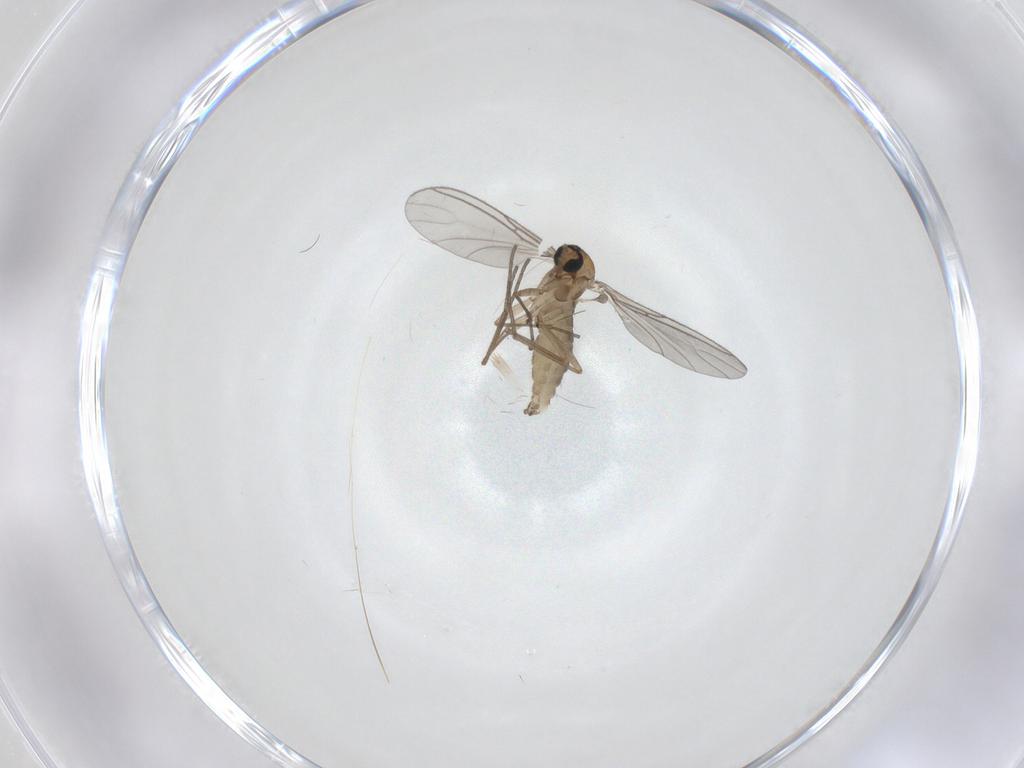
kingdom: Animalia
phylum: Arthropoda
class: Insecta
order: Diptera
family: Sciaridae
